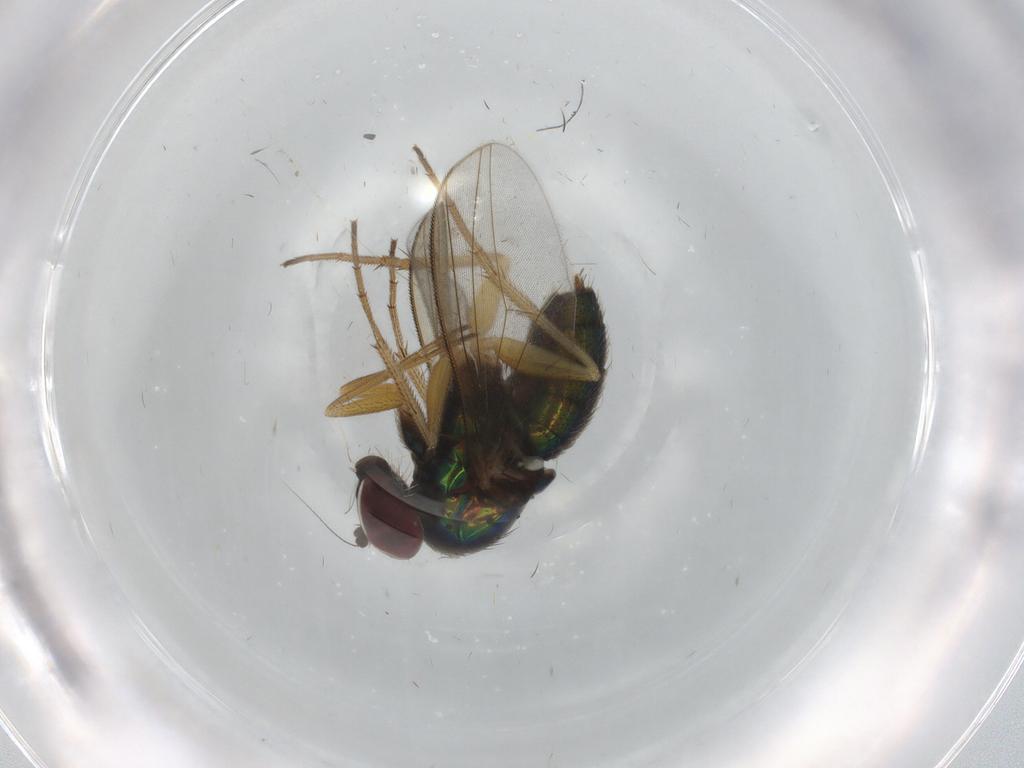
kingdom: Animalia
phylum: Arthropoda
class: Insecta
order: Diptera
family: Dolichopodidae
